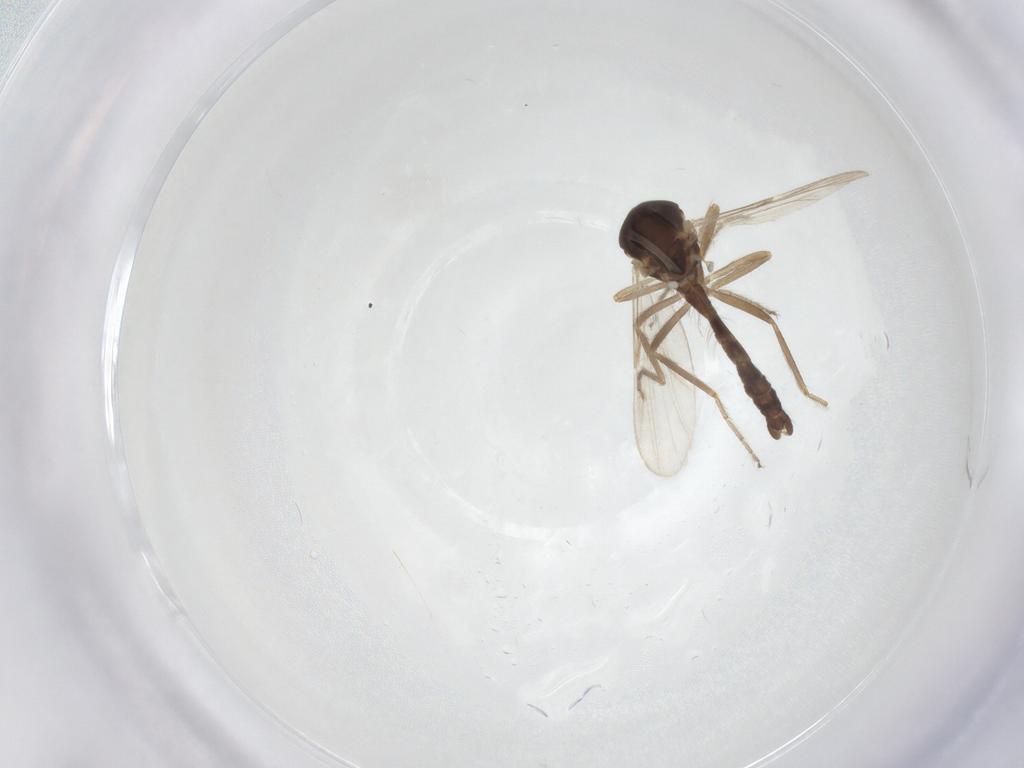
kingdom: Animalia
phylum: Arthropoda
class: Insecta
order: Diptera
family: Ceratopogonidae
